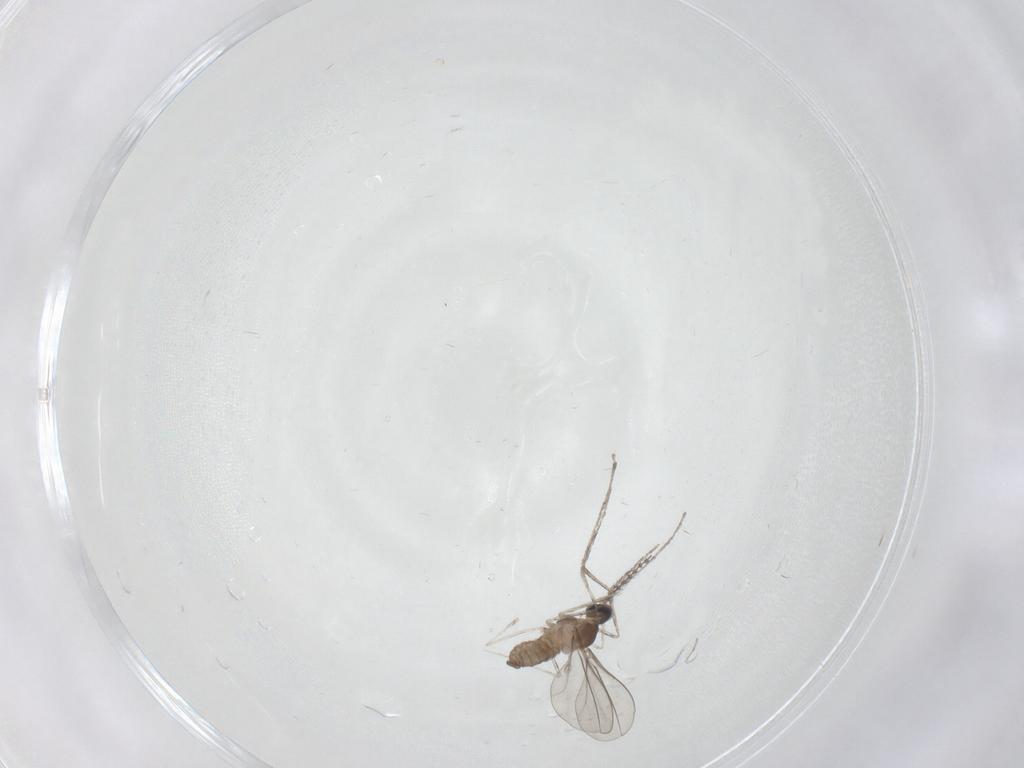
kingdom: Animalia
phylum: Arthropoda
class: Insecta
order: Diptera
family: Cecidomyiidae
